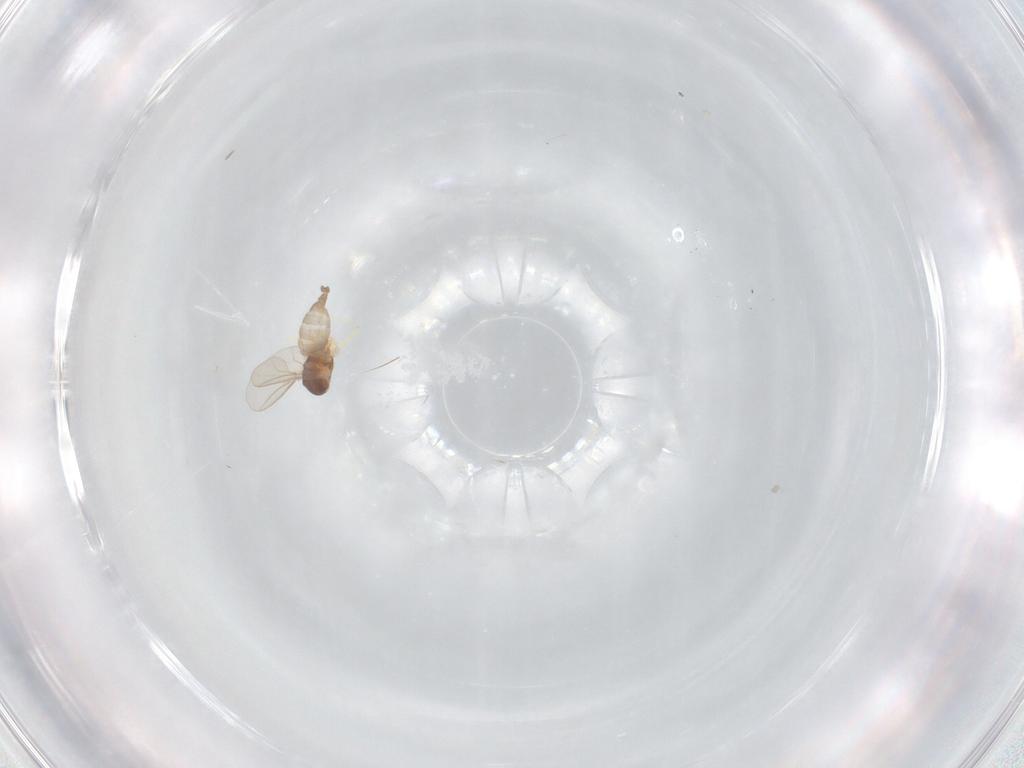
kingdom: Animalia
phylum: Arthropoda
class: Insecta
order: Diptera
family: Cecidomyiidae
